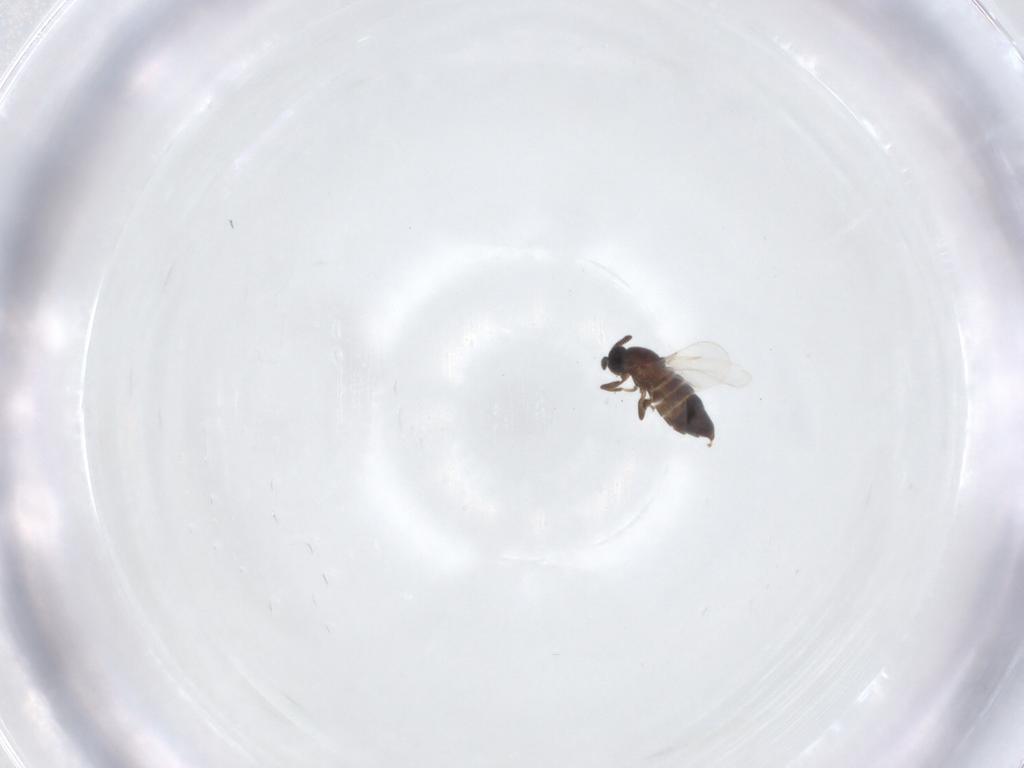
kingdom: Animalia
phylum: Arthropoda
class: Insecta
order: Diptera
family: Scatopsidae
